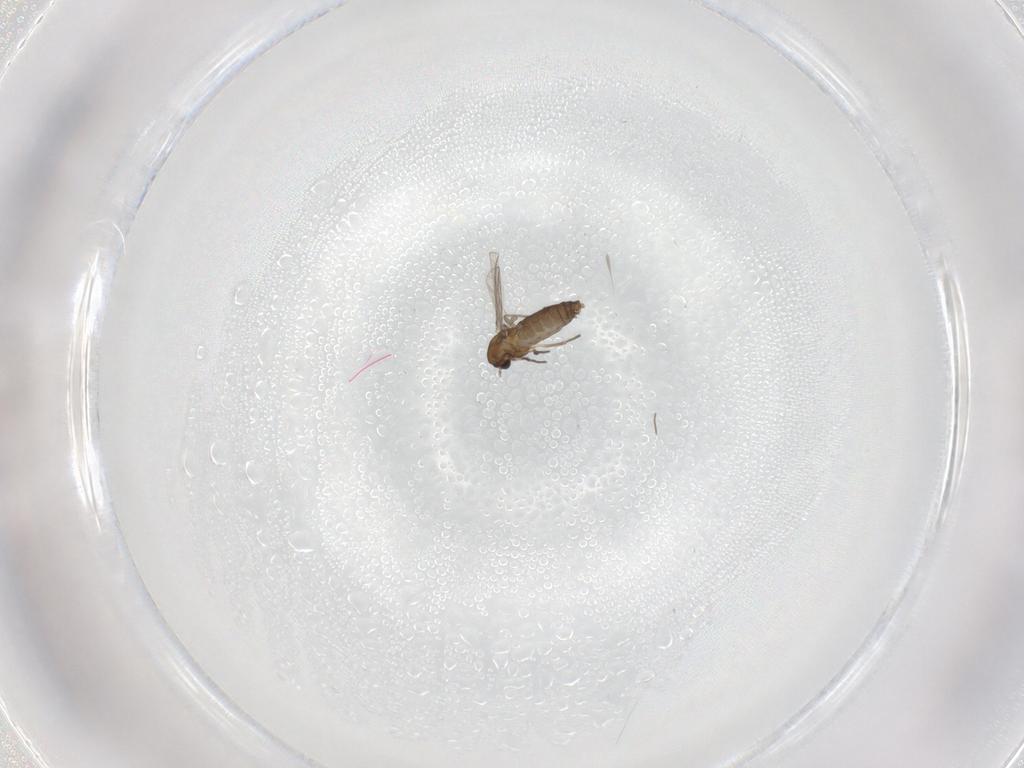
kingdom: Animalia
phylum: Arthropoda
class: Insecta
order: Diptera
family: Ceratopogonidae
